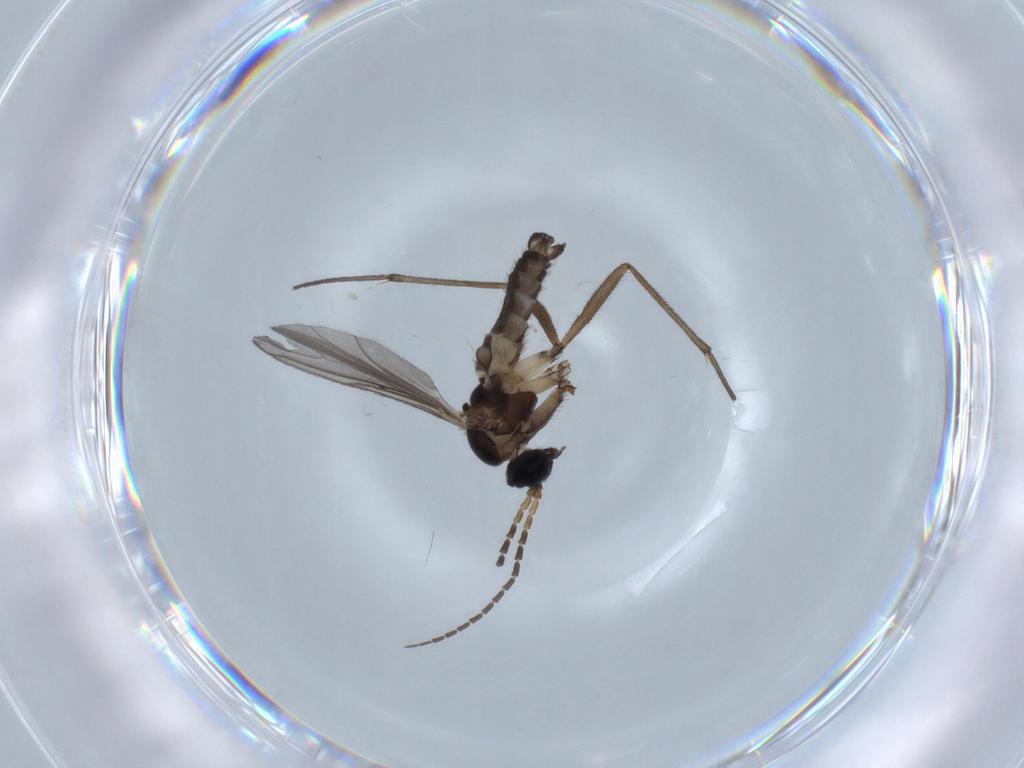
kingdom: Animalia
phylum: Arthropoda
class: Insecta
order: Diptera
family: Sciaridae
